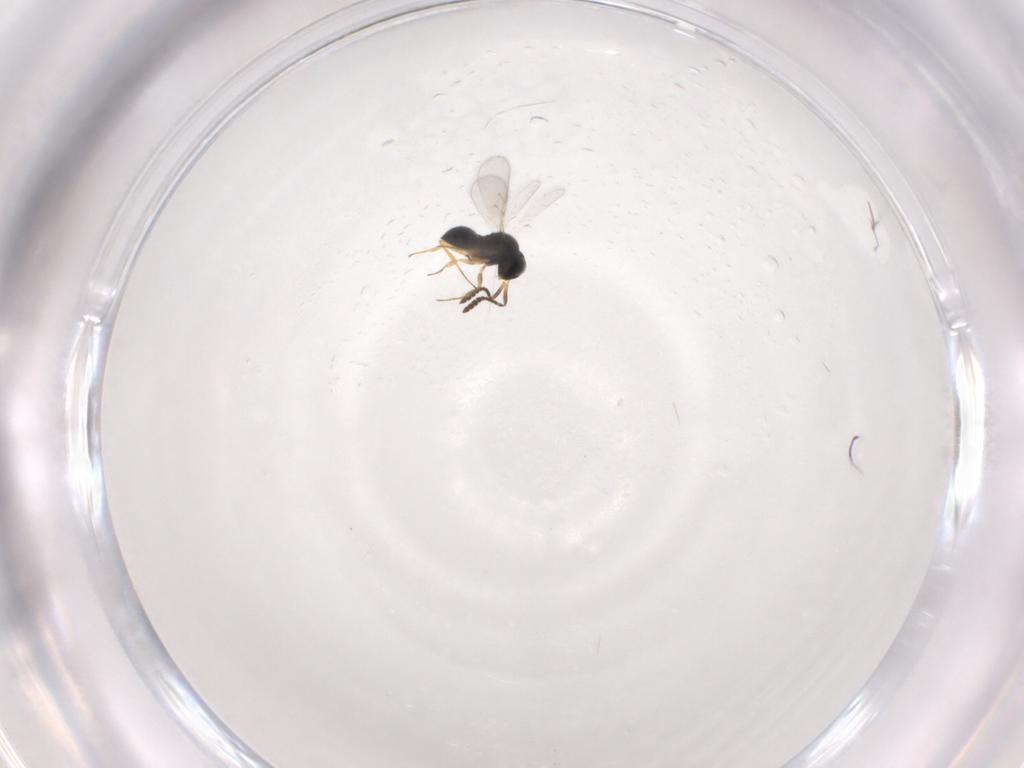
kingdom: Animalia
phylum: Arthropoda
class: Insecta
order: Hymenoptera
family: Scelionidae
